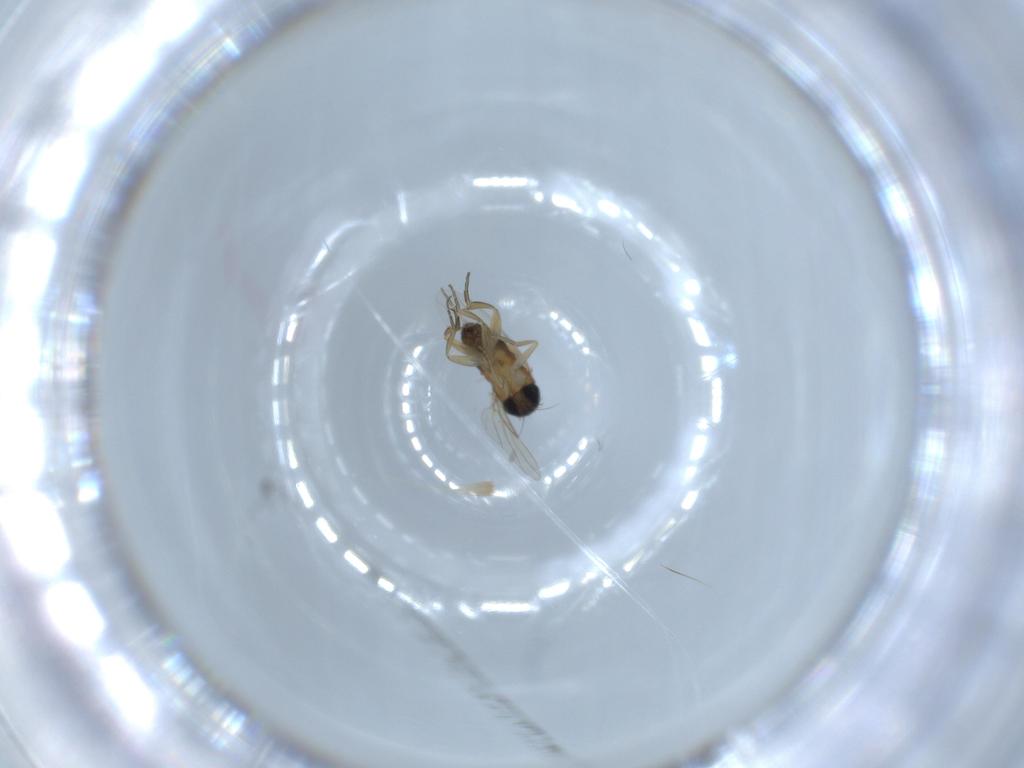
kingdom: Animalia
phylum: Arthropoda
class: Insecta
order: Diptera
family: Phoridae
